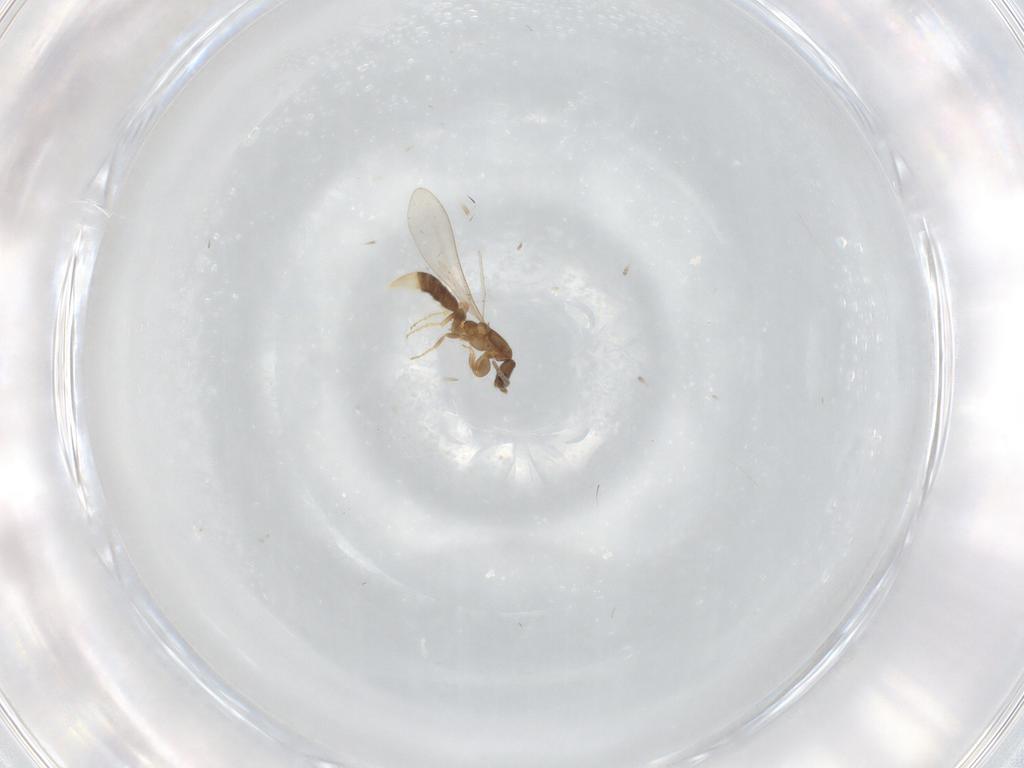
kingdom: Animalia
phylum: Arthropoda
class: Insecta
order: Hymenoptera
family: Formicidae
